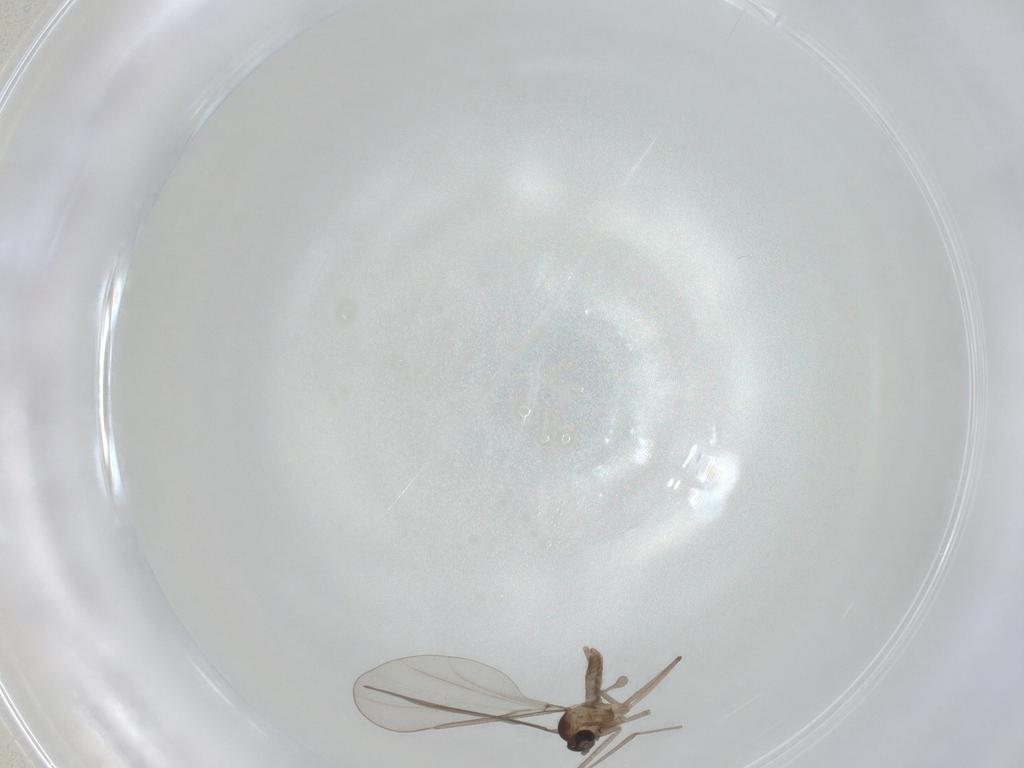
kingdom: Animalia
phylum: Arthropoda
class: Insecta
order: Diptera
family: Cecidomyiidae
